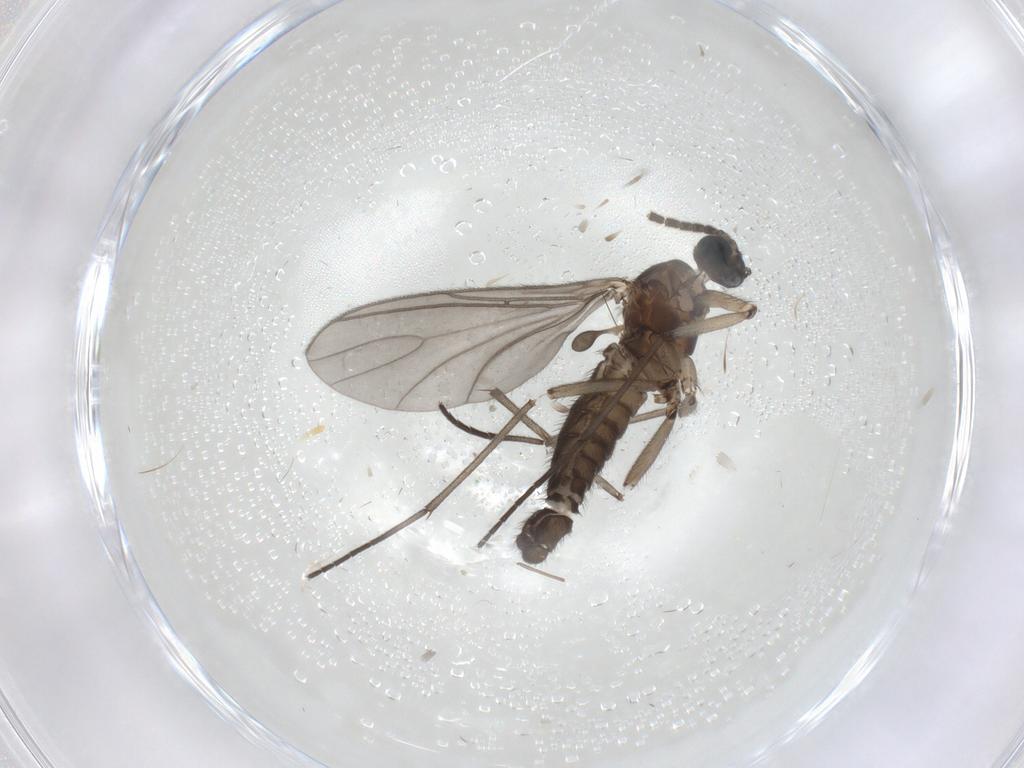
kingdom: Animalia
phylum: Arthropoda
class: Insecta
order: Diptera
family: Sciaridae
